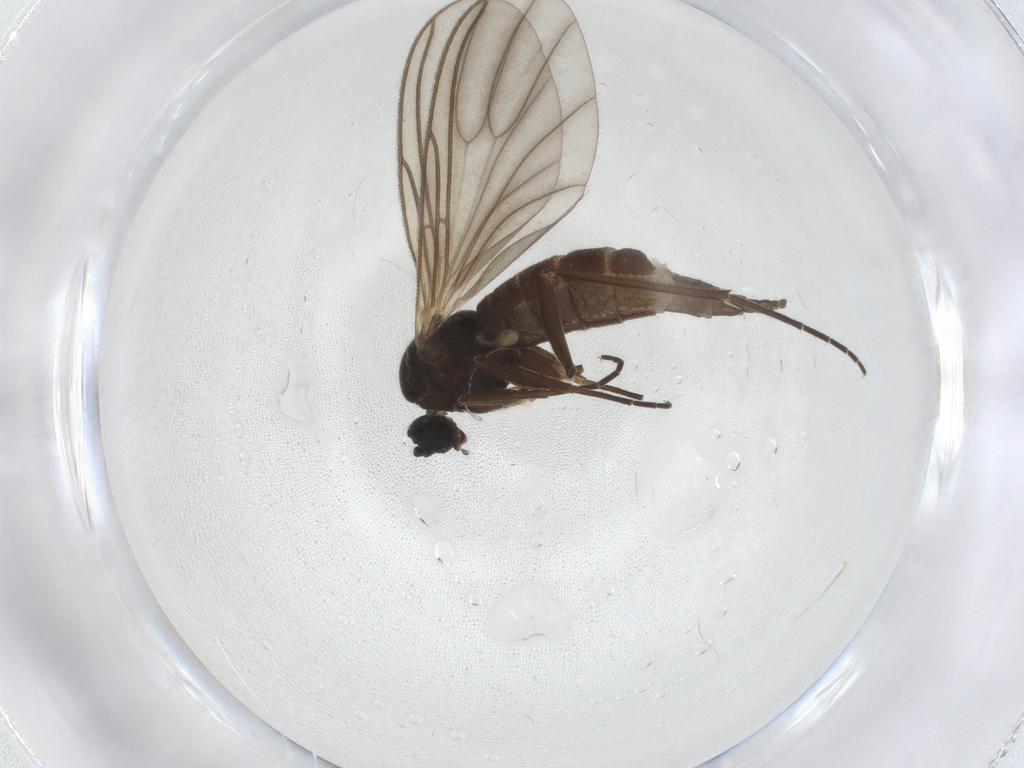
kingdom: Animalia
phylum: Arthropoda
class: Insecta
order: Diptera
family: Sciaridae
